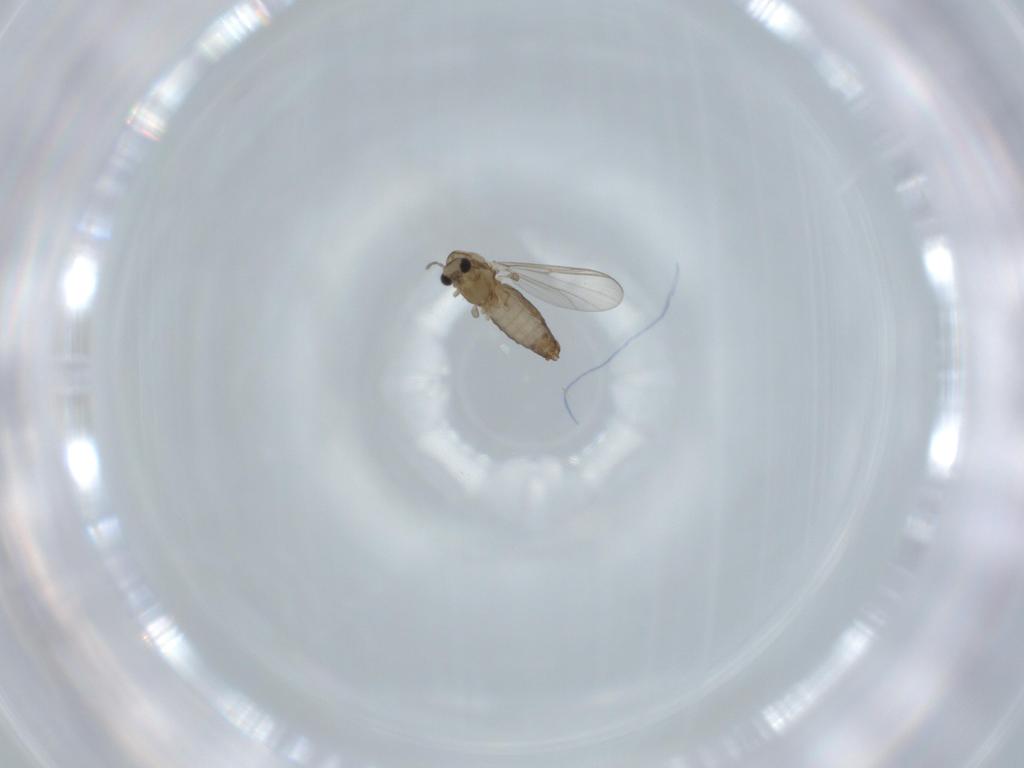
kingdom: Animalia
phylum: Arthropoda
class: Insecta
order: Diptera
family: Chironomidae
